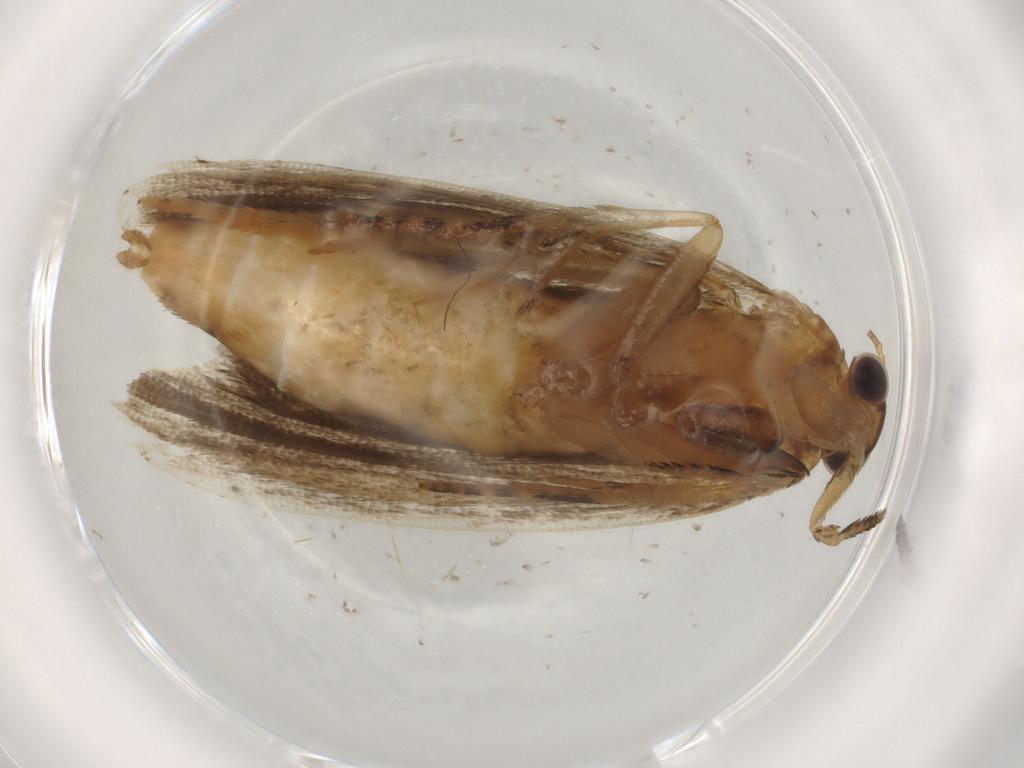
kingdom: Animalia
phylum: Arthropoda
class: Insecta
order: Lepidoptera
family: Tortricidae
